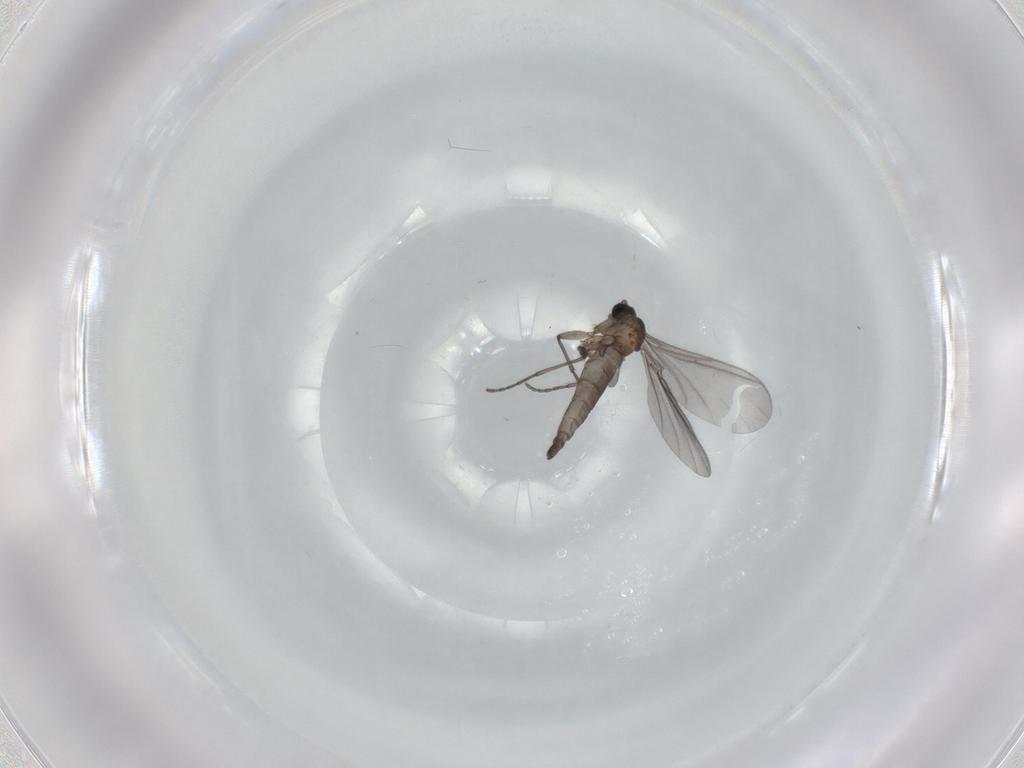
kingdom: Animalia
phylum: Arthropoda
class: Insecta
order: Diptera
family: Sciaridae
